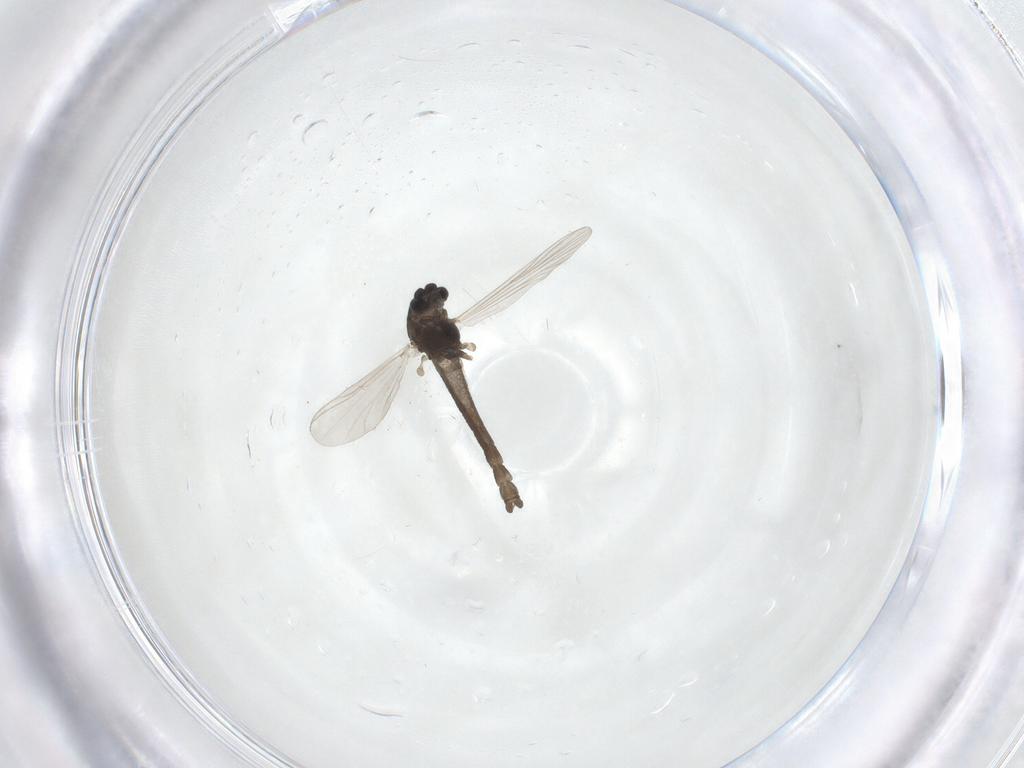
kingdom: Animalia
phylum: Arthropoda
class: Insecta
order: Diptera
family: Chironomidae
